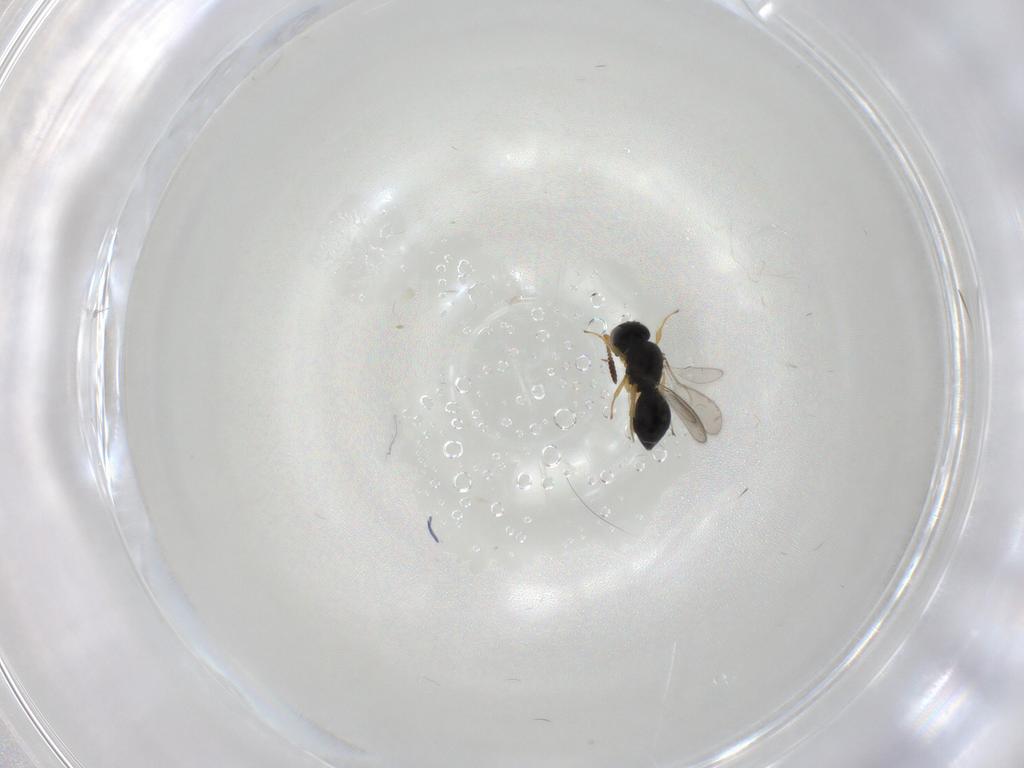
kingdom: Animalia
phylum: Arthropoda
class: Insecta
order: Hymenoptera
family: Scelionidae
